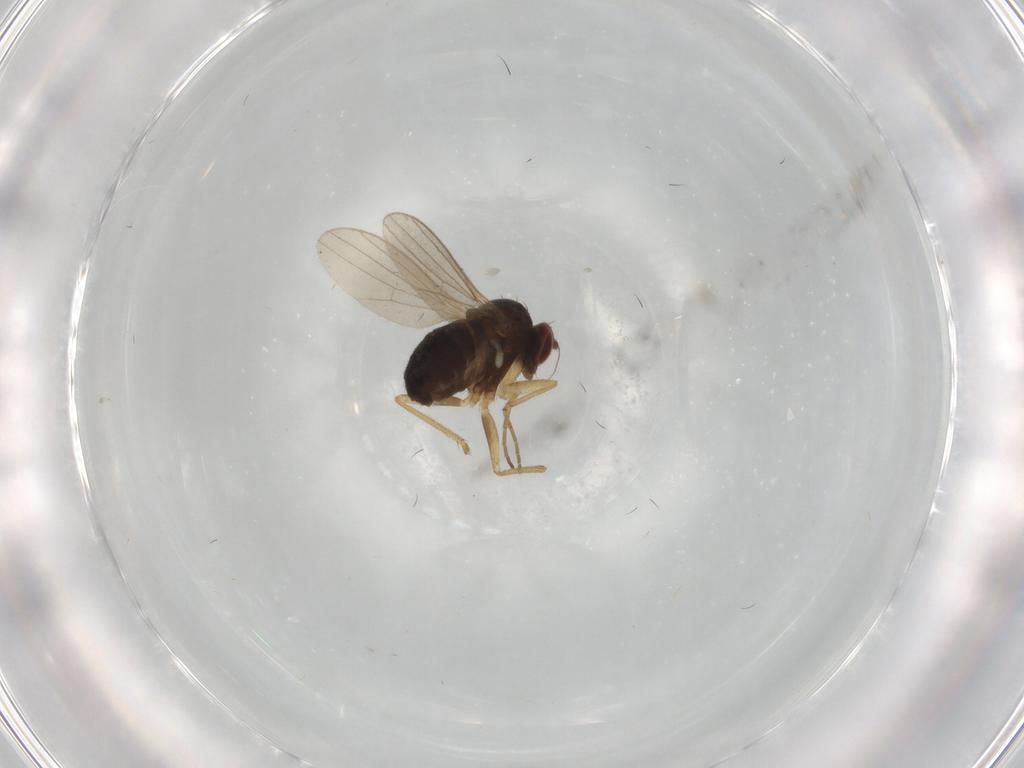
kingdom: Animalia
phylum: Arthropoda
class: Insecta
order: Diptera
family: Dolichopodidae
